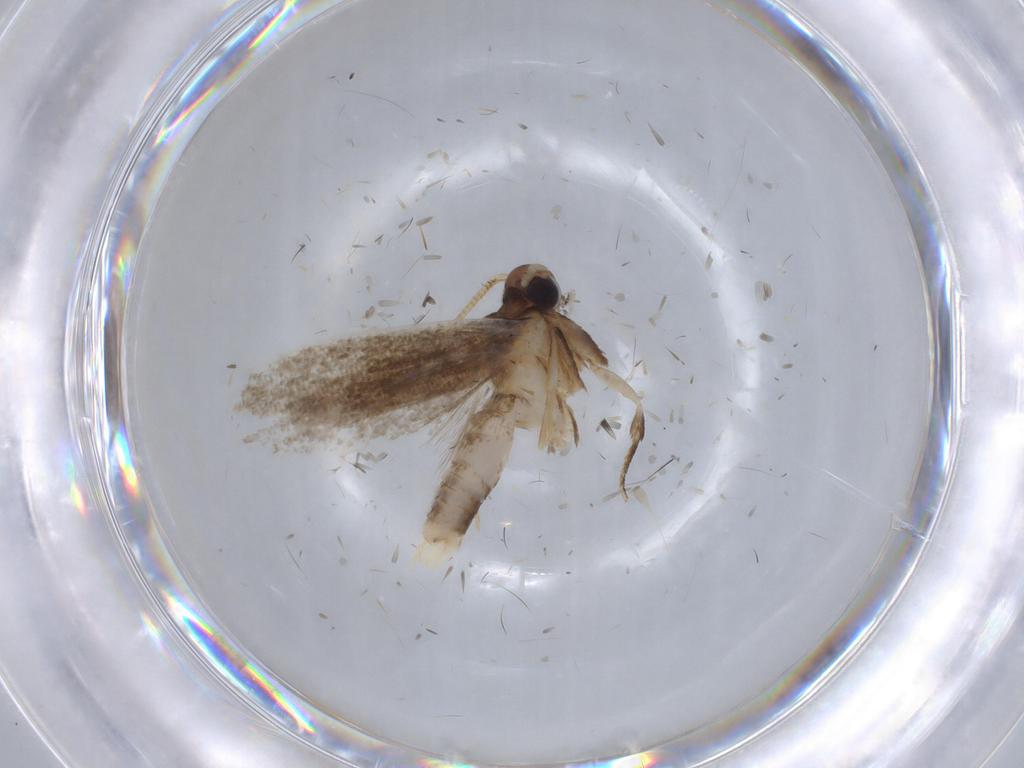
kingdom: Animalia
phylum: Arthropoda
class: Insecta
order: Lepidoptera
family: Coleophoridae
